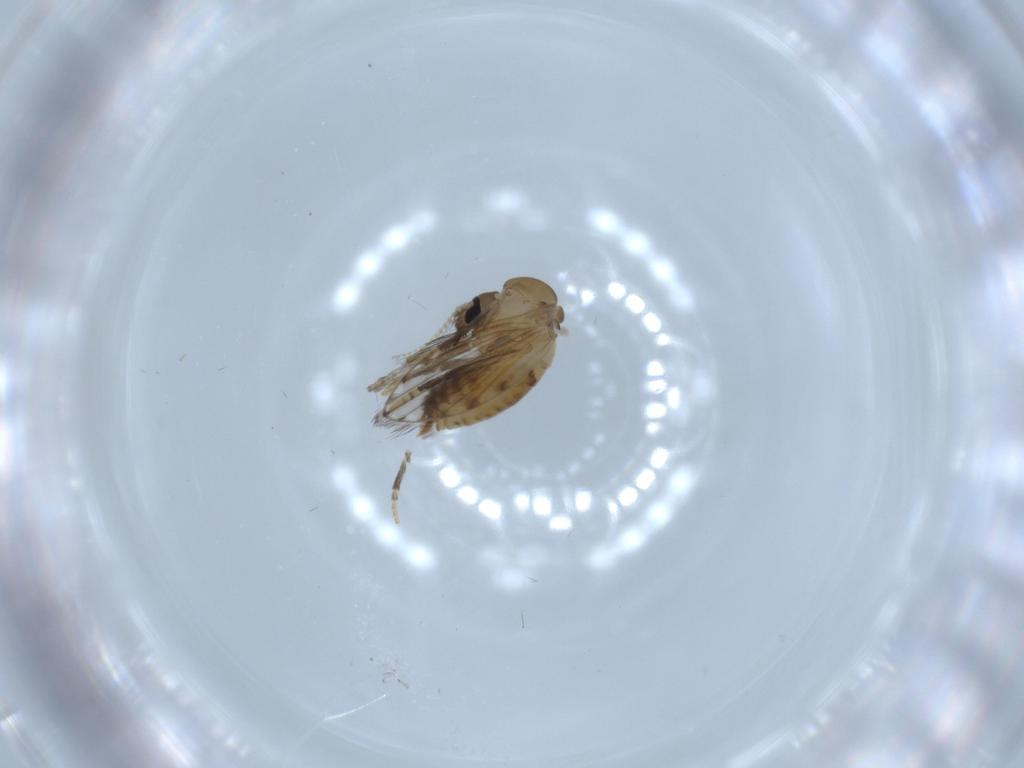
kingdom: Animalia
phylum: Arthropoda
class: Insecta
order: Diptera
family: Psychodidae
